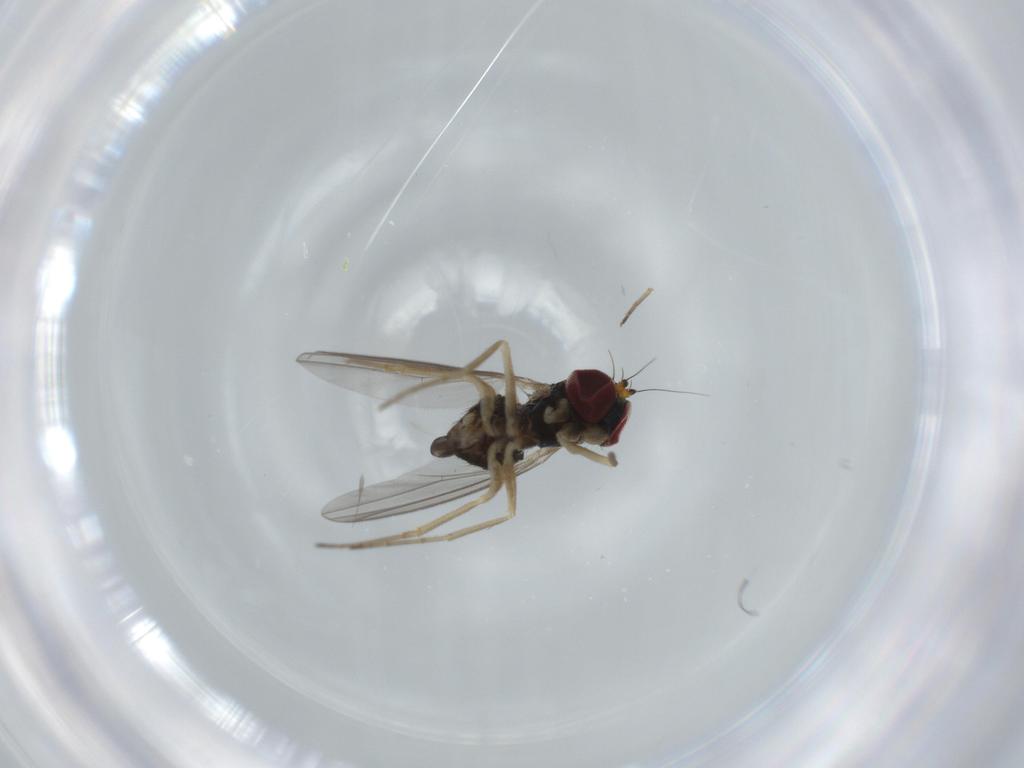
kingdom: Animalia
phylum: Arthropoda
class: Insecta
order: Diptera
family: Dolichopodidae
